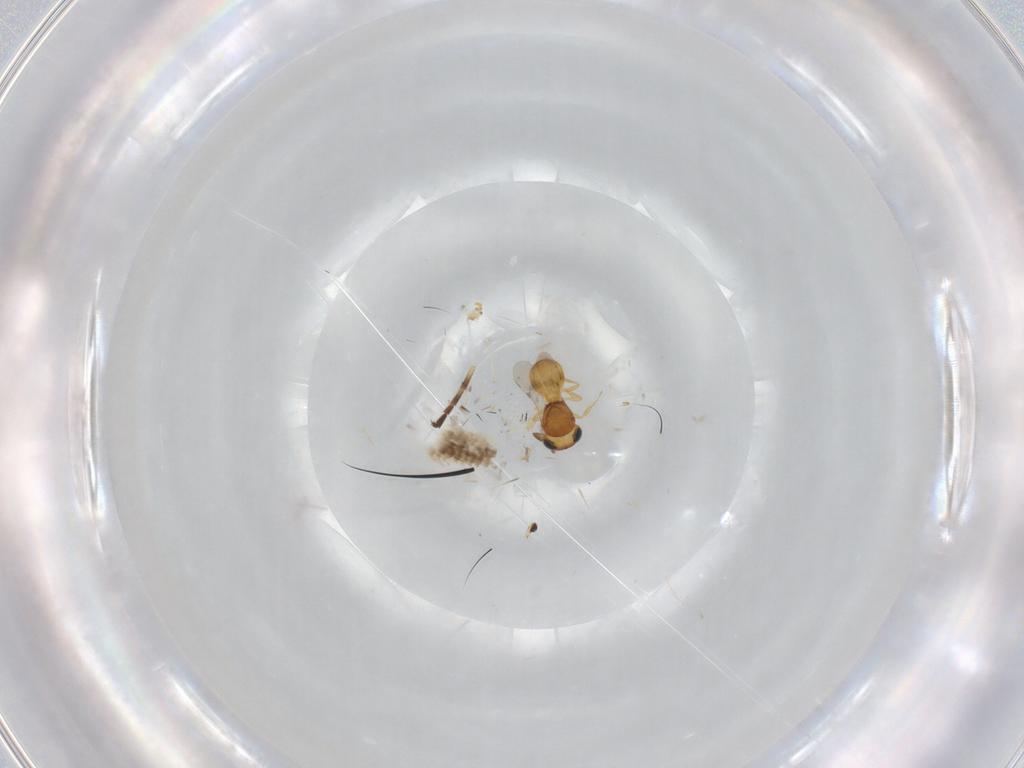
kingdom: Animalia
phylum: Arthropoda
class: Insecta
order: Hymenoptera
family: Scelionidae
